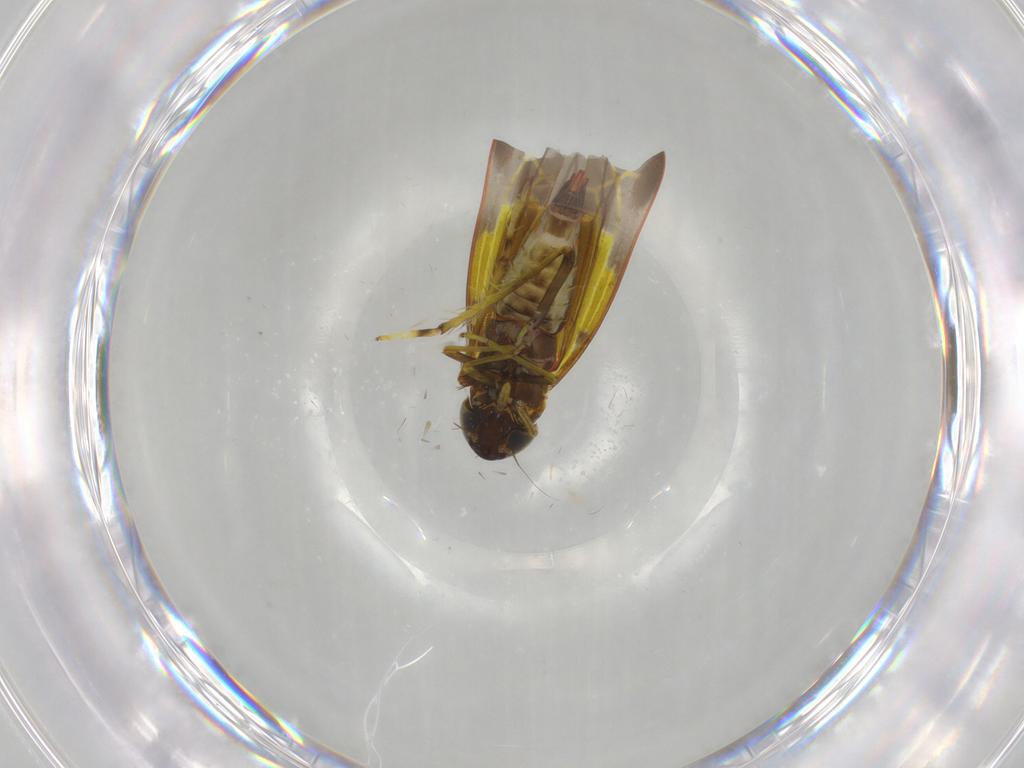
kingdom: Animalia
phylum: Arthropoda
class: Insecta
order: Hemiptera
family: Cicadellidae
